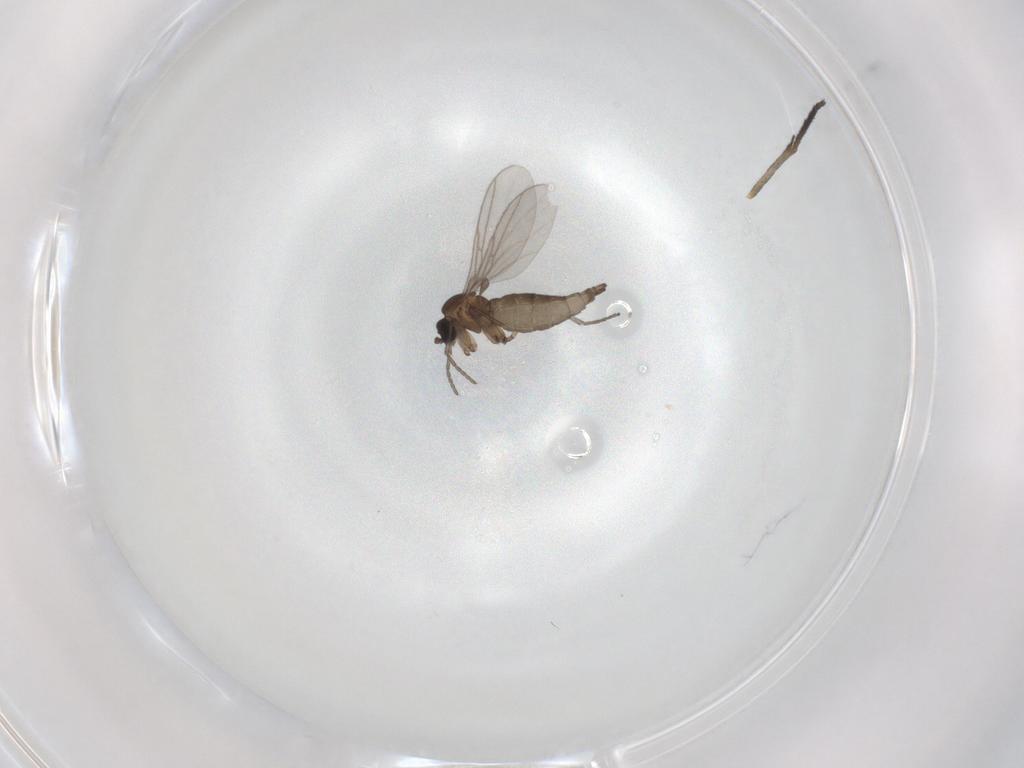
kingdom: Animalia
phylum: Arthropoda
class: Insecta
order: Diptera
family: Sciaridae
